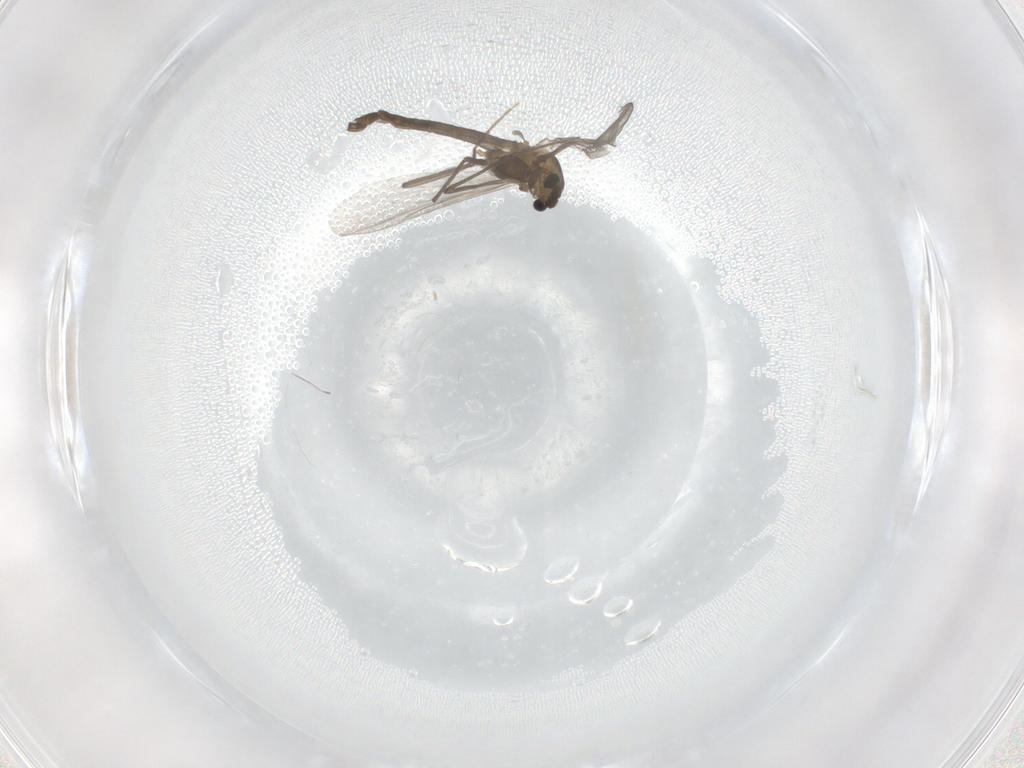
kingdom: Animalia
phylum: Arthropoda
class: Insecta
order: Diptera
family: Chironomidae
